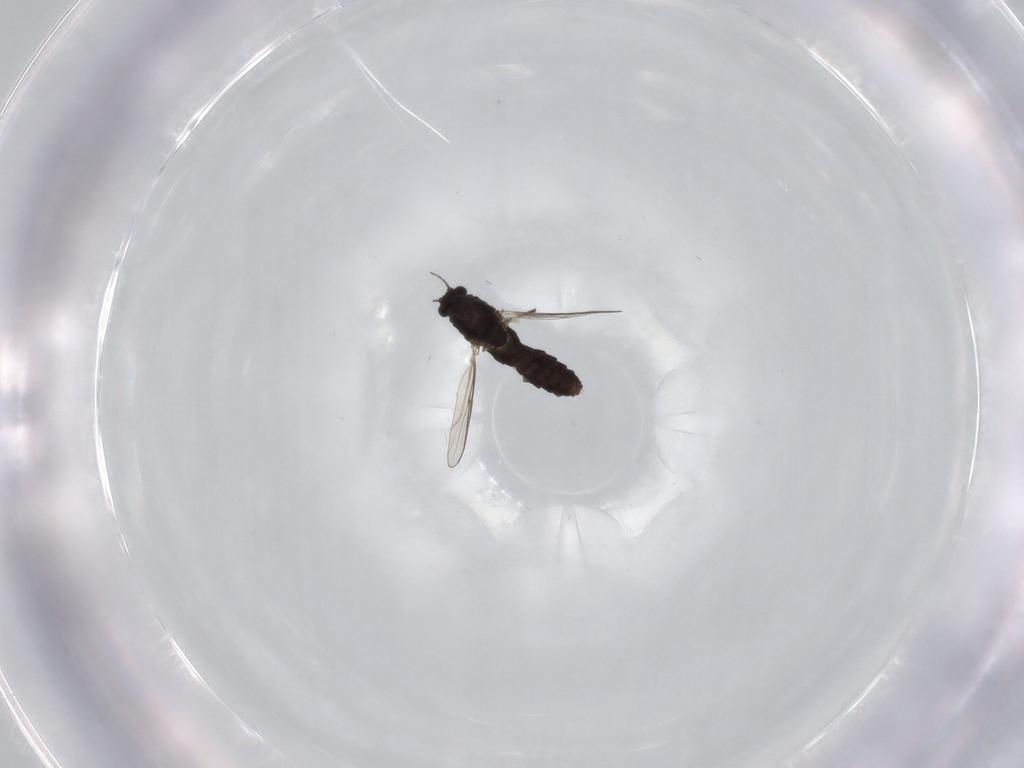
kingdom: Animalia
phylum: Arthropoda
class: Insecta
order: Diptera
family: Chironomidae
